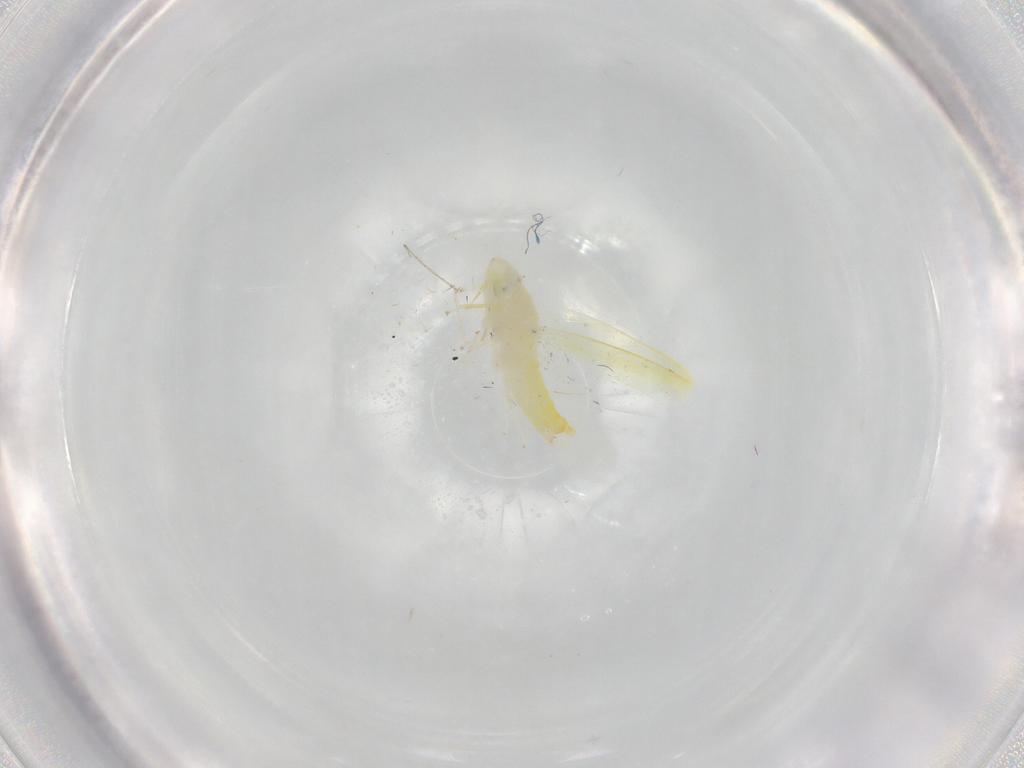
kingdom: Animalia
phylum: Arthropoda
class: Insecta
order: Hemiptera
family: Cicadellidae
